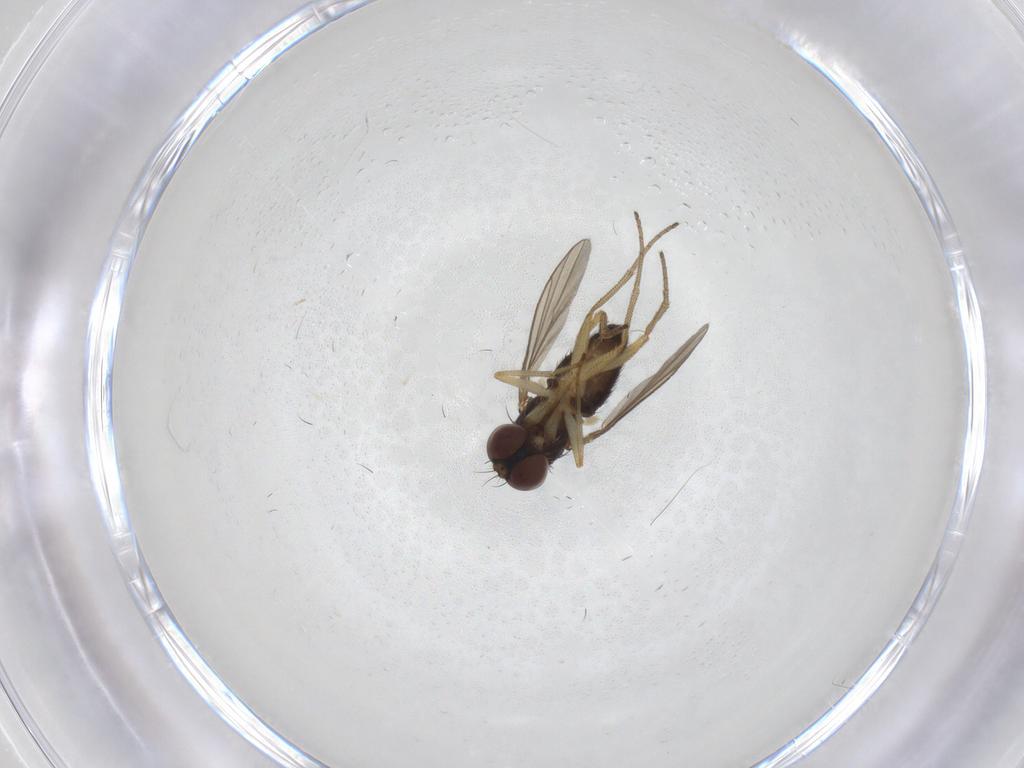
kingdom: Animalia
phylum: Arthropoda
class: Insecta
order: Diptera
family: Dolichopodidae
